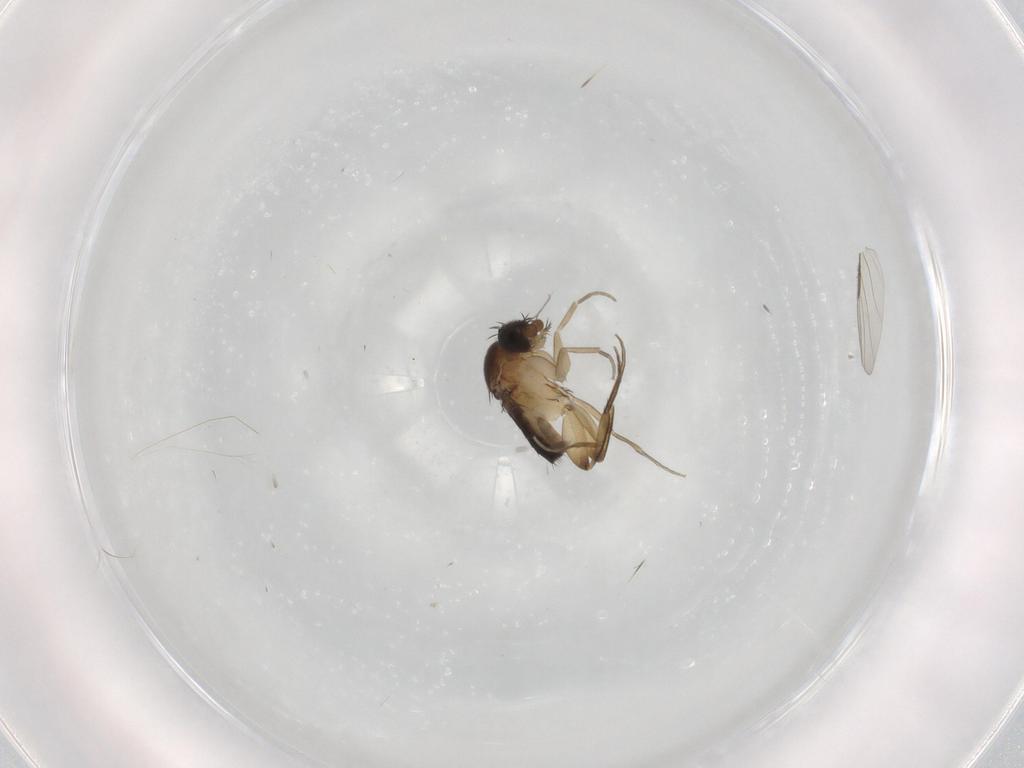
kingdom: Animalia
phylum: Arthropoda
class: Insecta
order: Diptera
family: Phoridae
